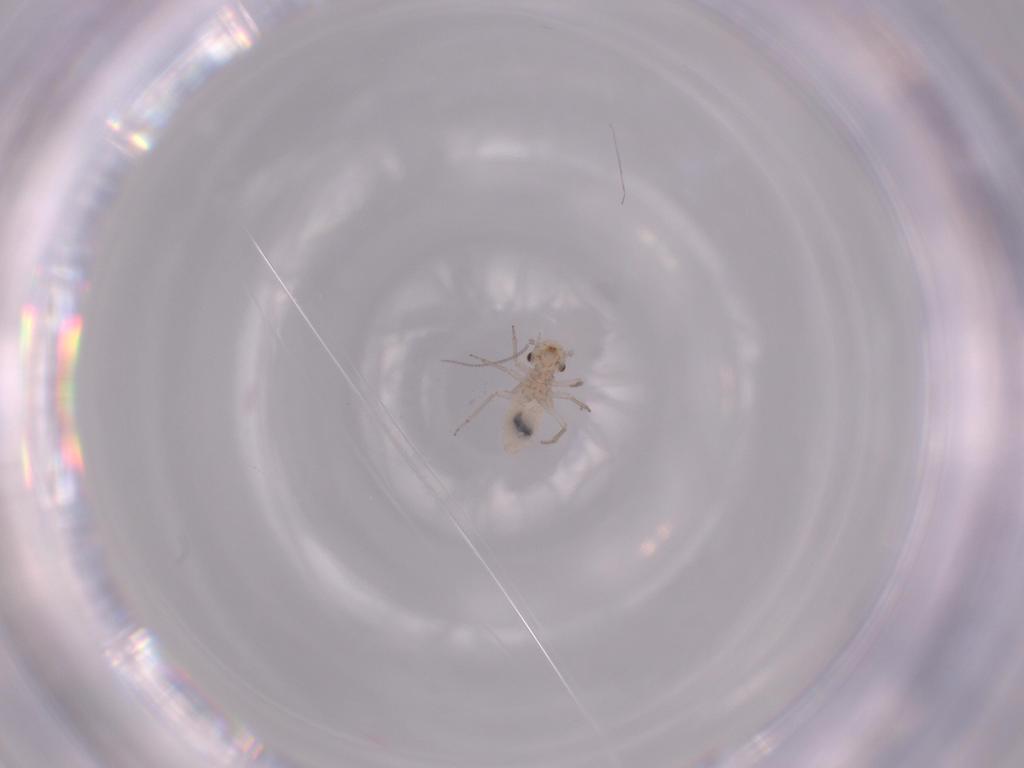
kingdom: Animalia
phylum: Arthropoda
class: Insecta
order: Psocodea
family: Lachesillidae
